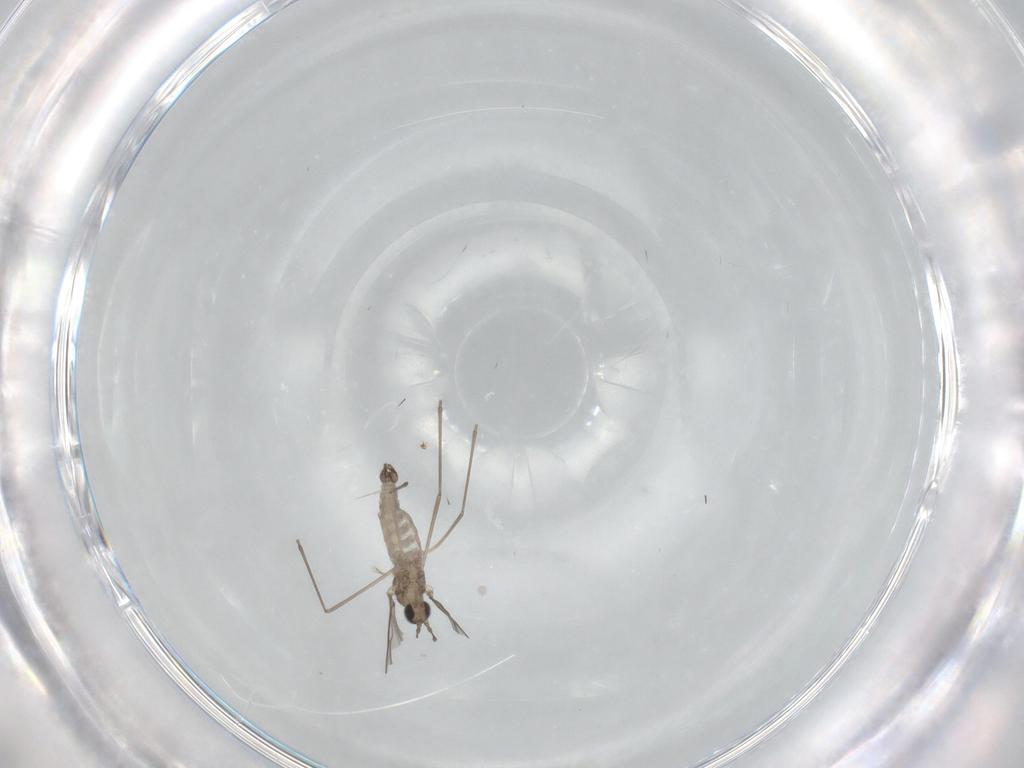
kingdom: Animalia
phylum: Arthropoda
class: Insecta
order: Diptera
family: Cecidomyiidae
